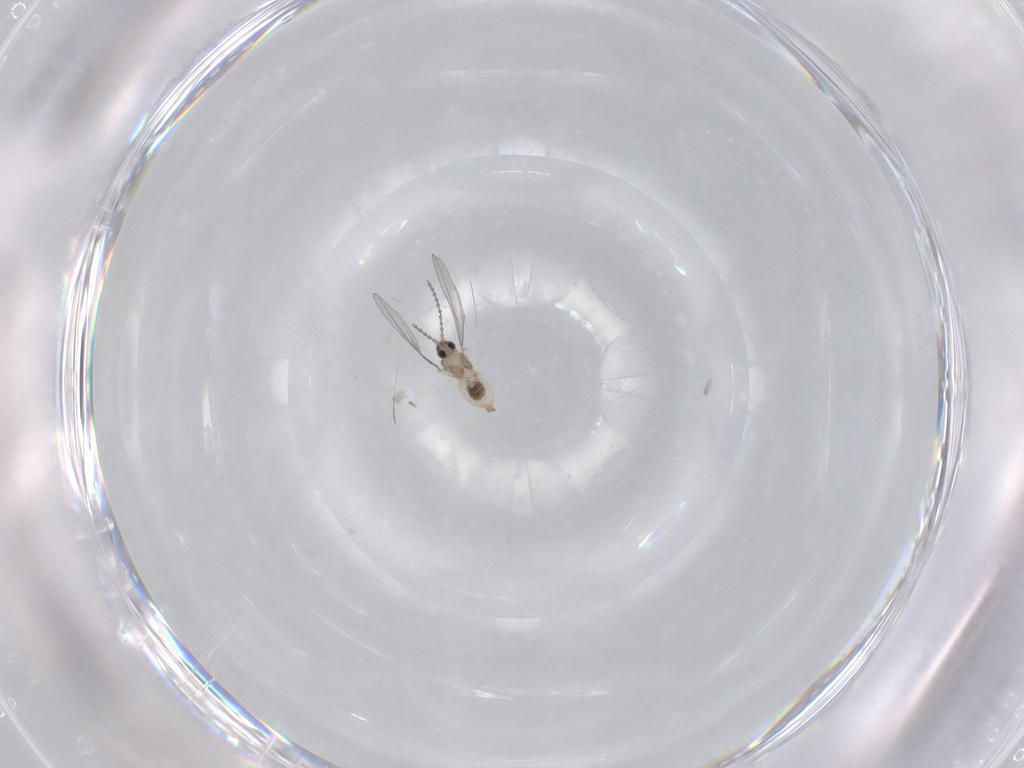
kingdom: Animalia
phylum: Arthropoda
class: Insecta
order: Diptera
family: Cecidomyiidae
